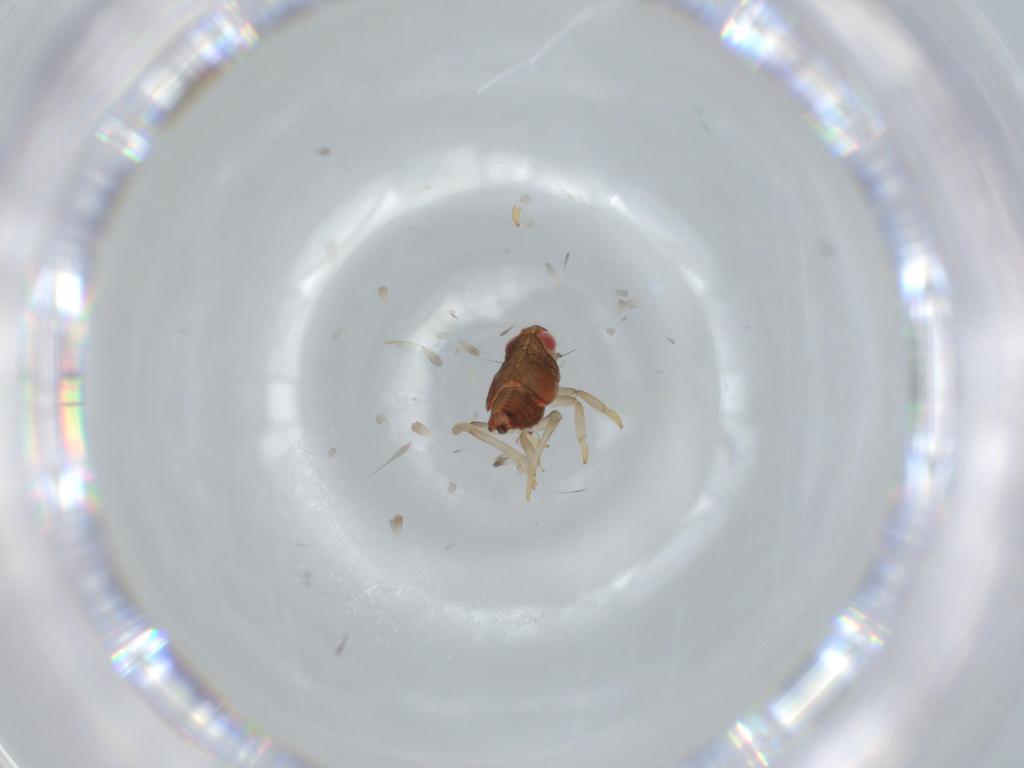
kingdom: Animalia
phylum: Arthropoda
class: Insecta
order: Hemiptera
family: Issidae
